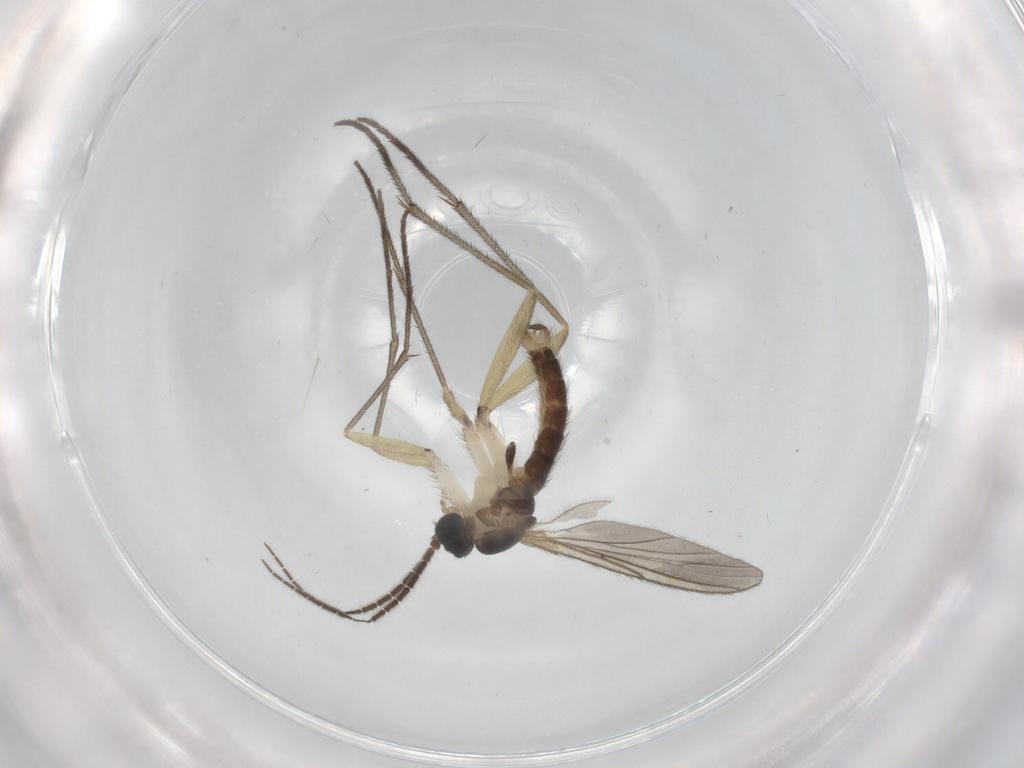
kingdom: Animalia
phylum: Arthropoda
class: Insecta
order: Diptera
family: Sciaridae
